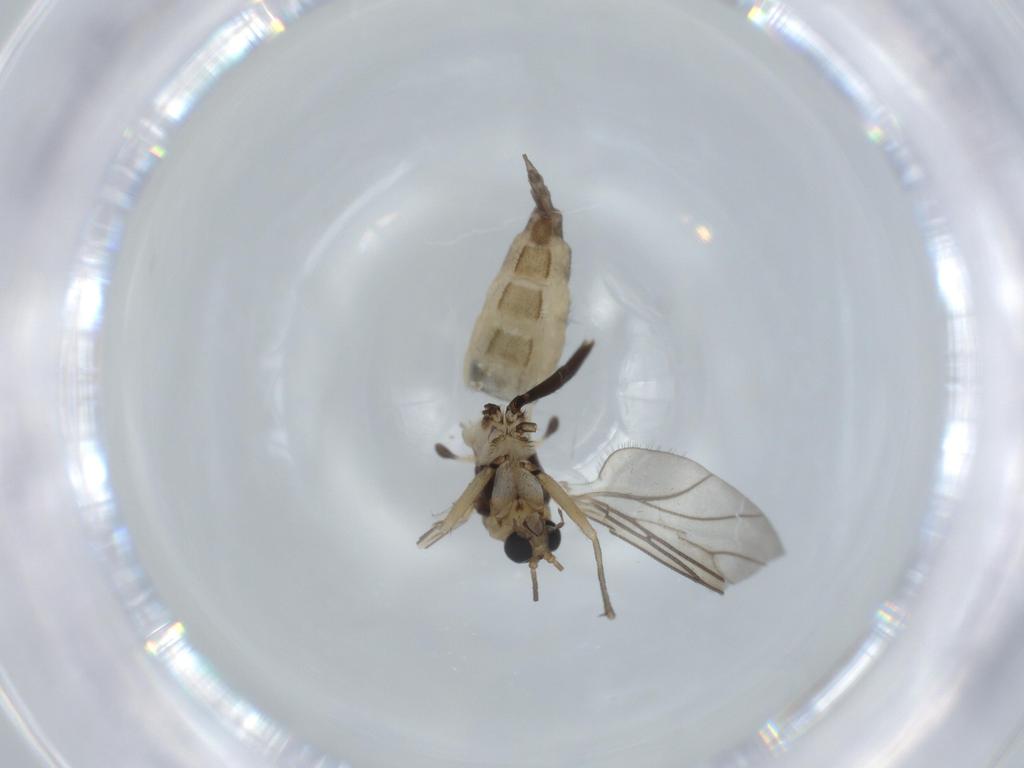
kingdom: Animalia
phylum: Arthropoda
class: Insecta
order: Diptera
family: Sciaridae
